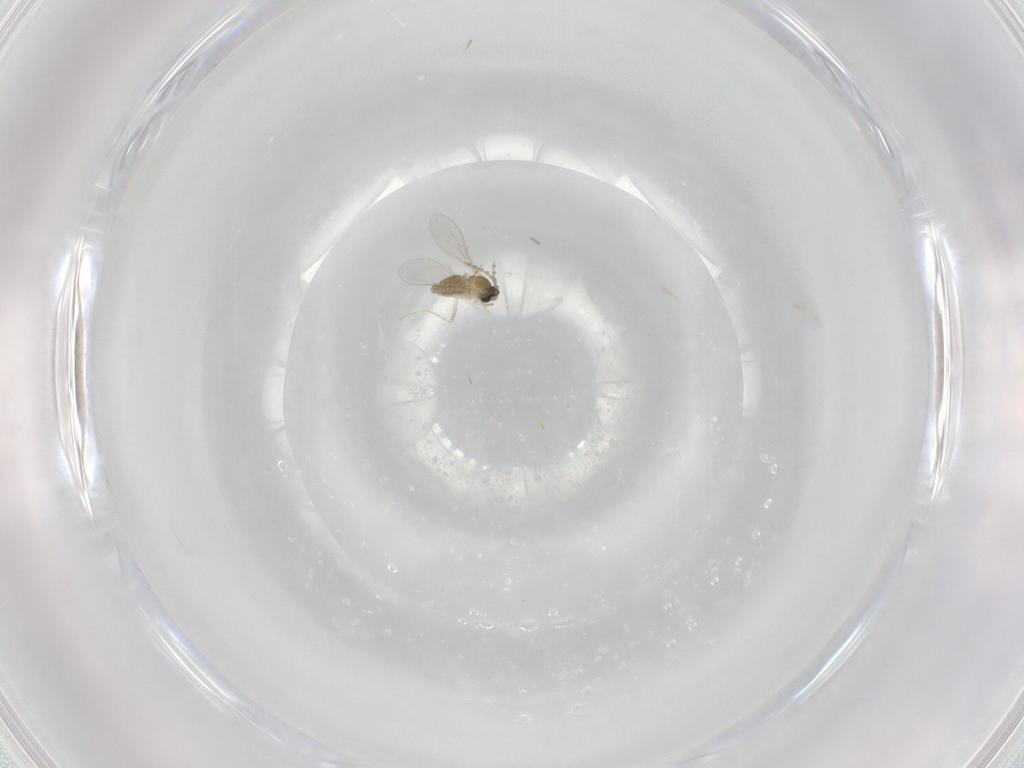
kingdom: Animalia
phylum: Arthropoda
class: Insecta
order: Diptera
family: Cecidomyiidae
